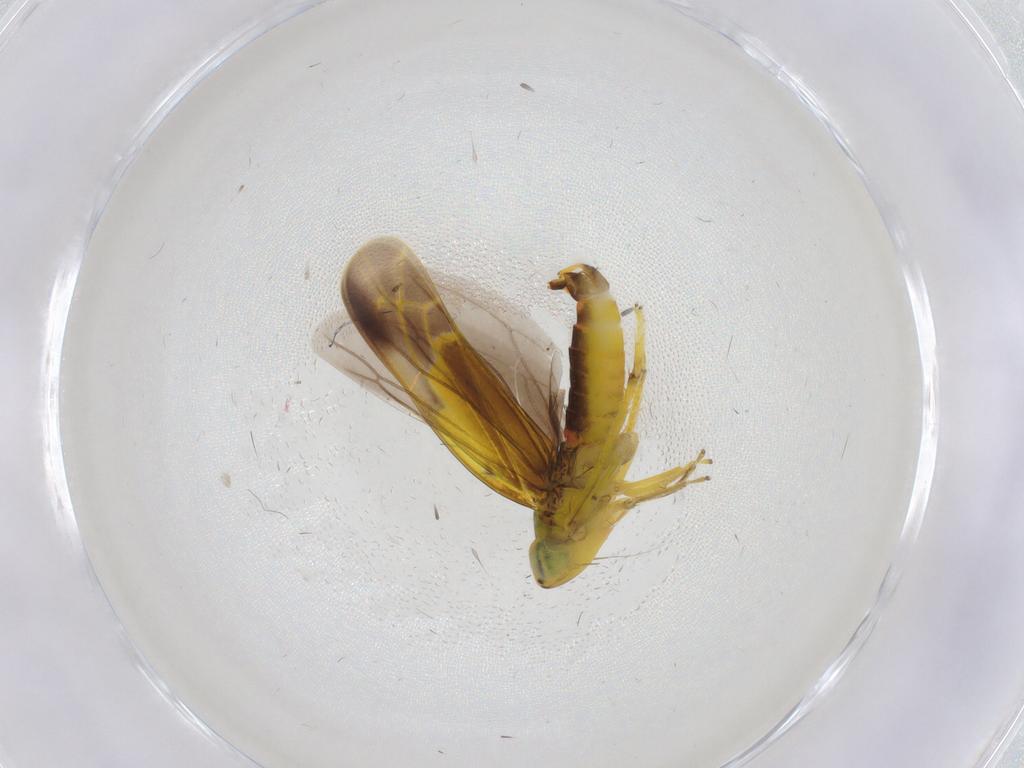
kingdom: Animalia
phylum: Arthropoda
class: Insecta
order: Hemiptera
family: Cicadellidae
